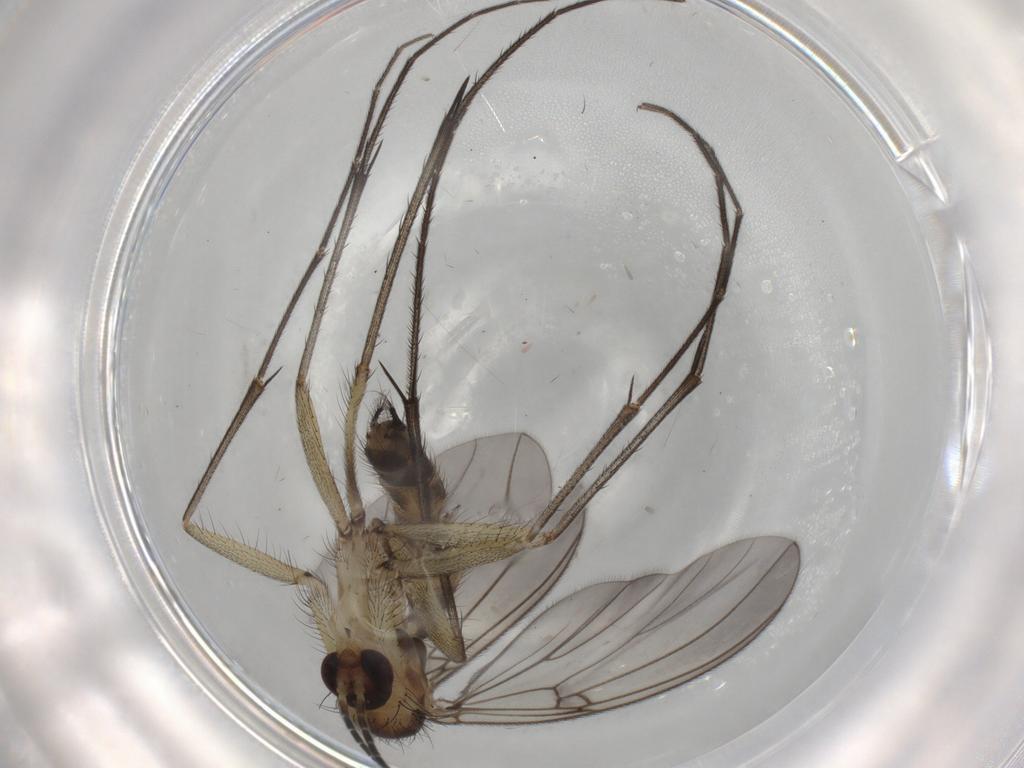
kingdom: Animalia
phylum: Arthropoda
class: Insecta
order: Diptera
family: Mycetophilidae
